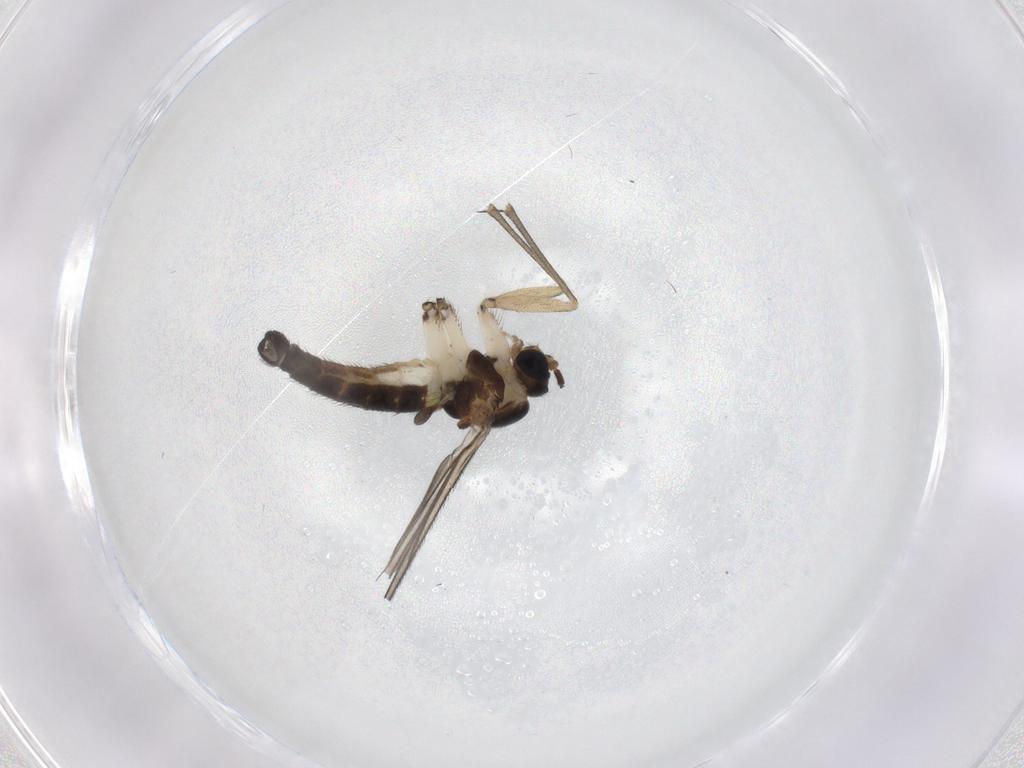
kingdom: Animalia
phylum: Arthropoda
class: Insecta
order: Diptera
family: Sciaridae
